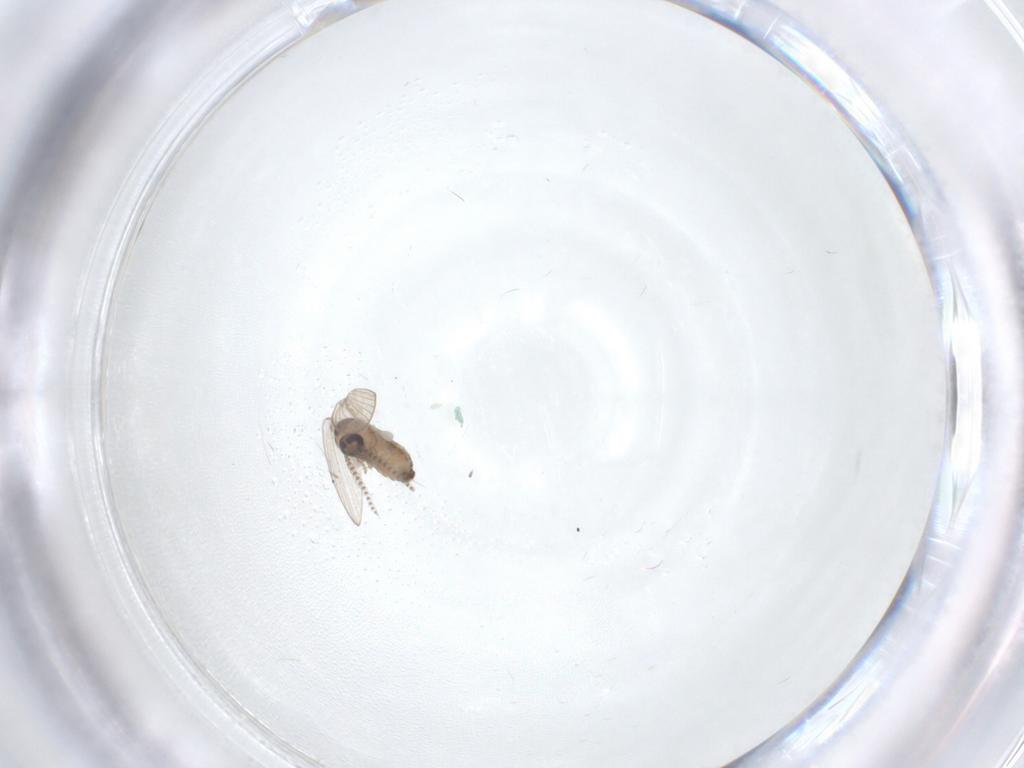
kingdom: Animalia
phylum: Arthropoda
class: Insecta
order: Diptera
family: Psychodidae
